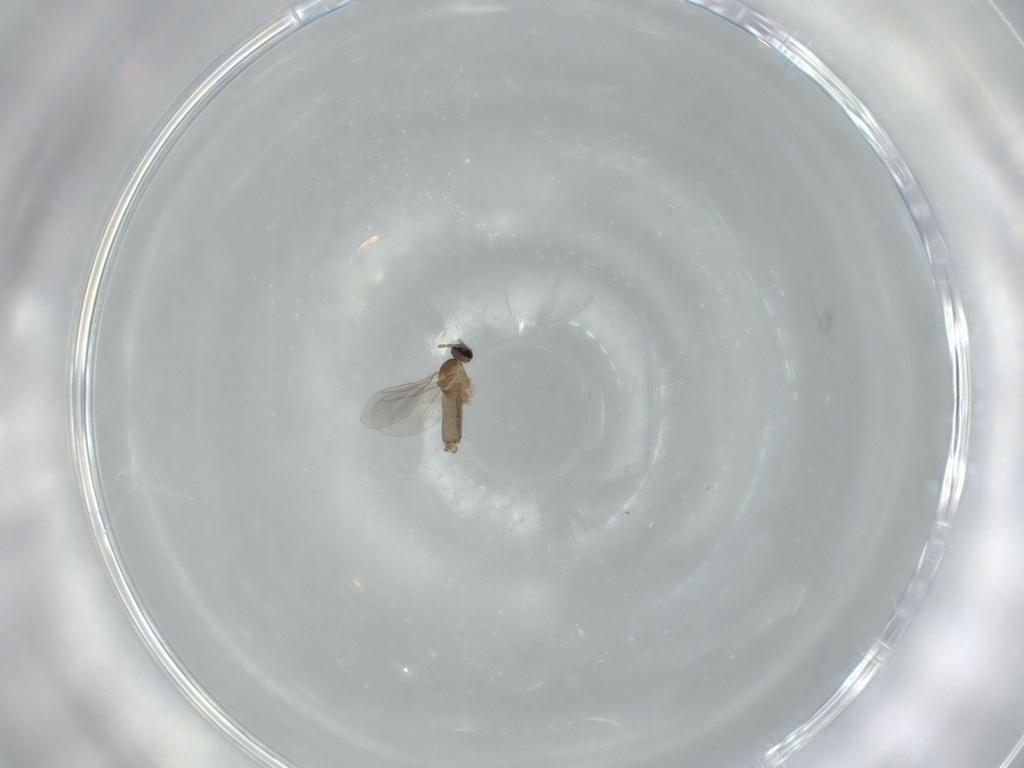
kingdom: Animalia
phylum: Arthropoda
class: Insecta
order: Diptera
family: Cecidomyiidae
